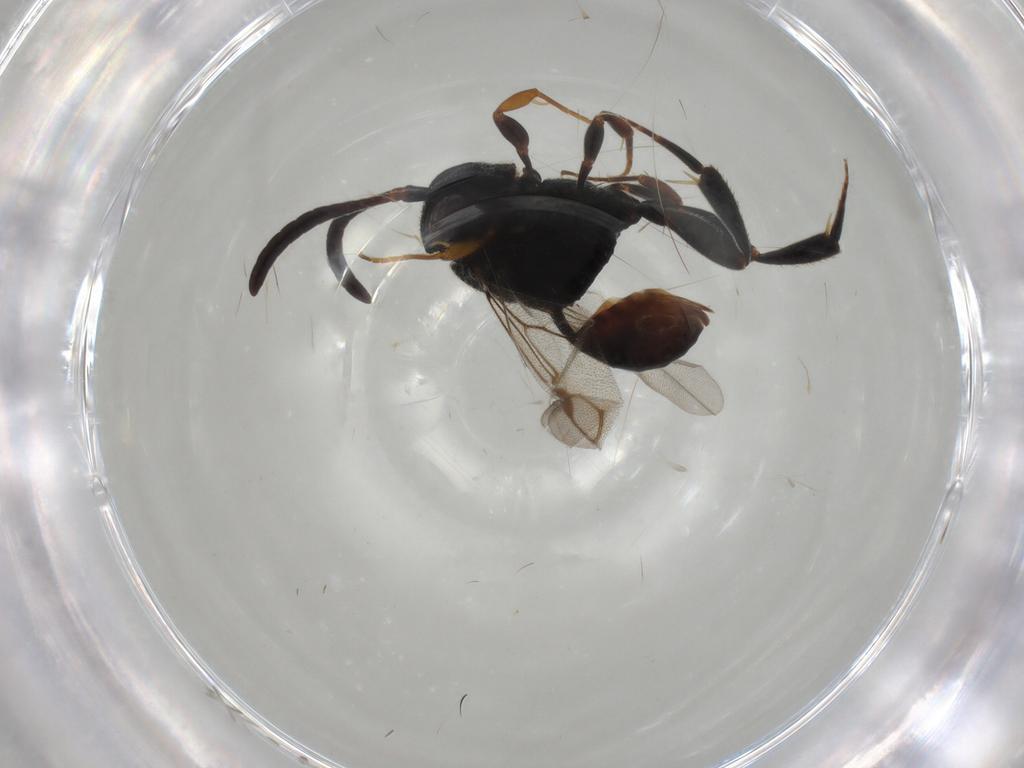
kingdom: Animalia
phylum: Arthropoda
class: Insecta
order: Hymenoptera
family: Evaniidae
